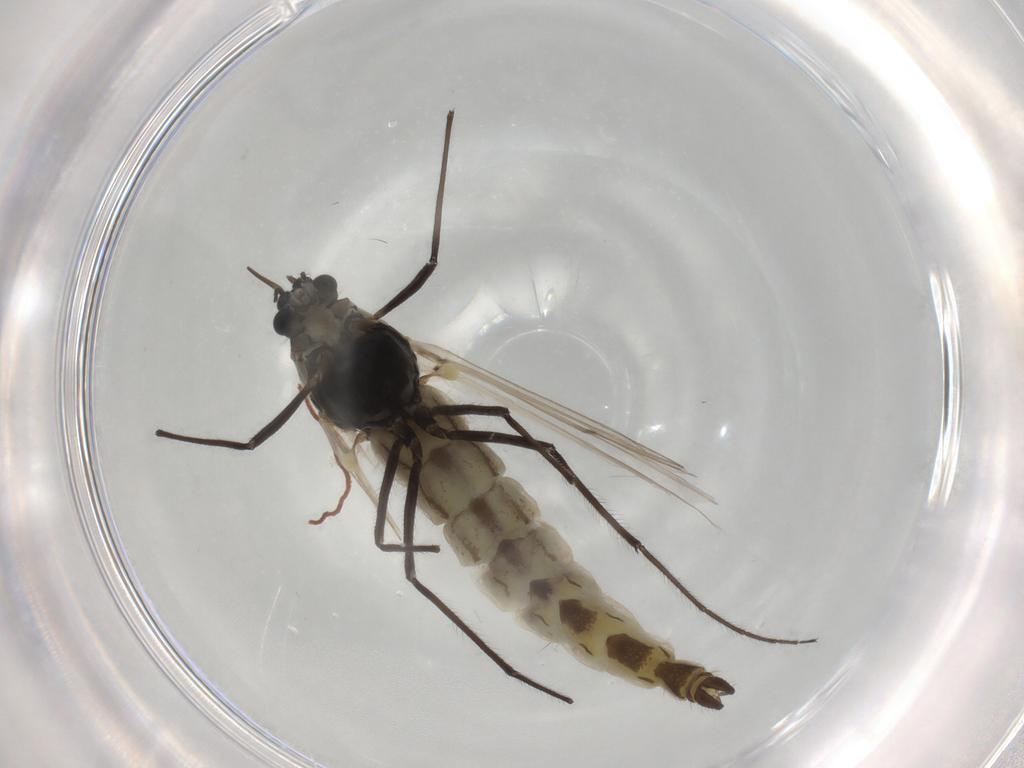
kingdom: Animalia
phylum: Arthropoda
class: Insecta
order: Diptera
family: Chironomidae
